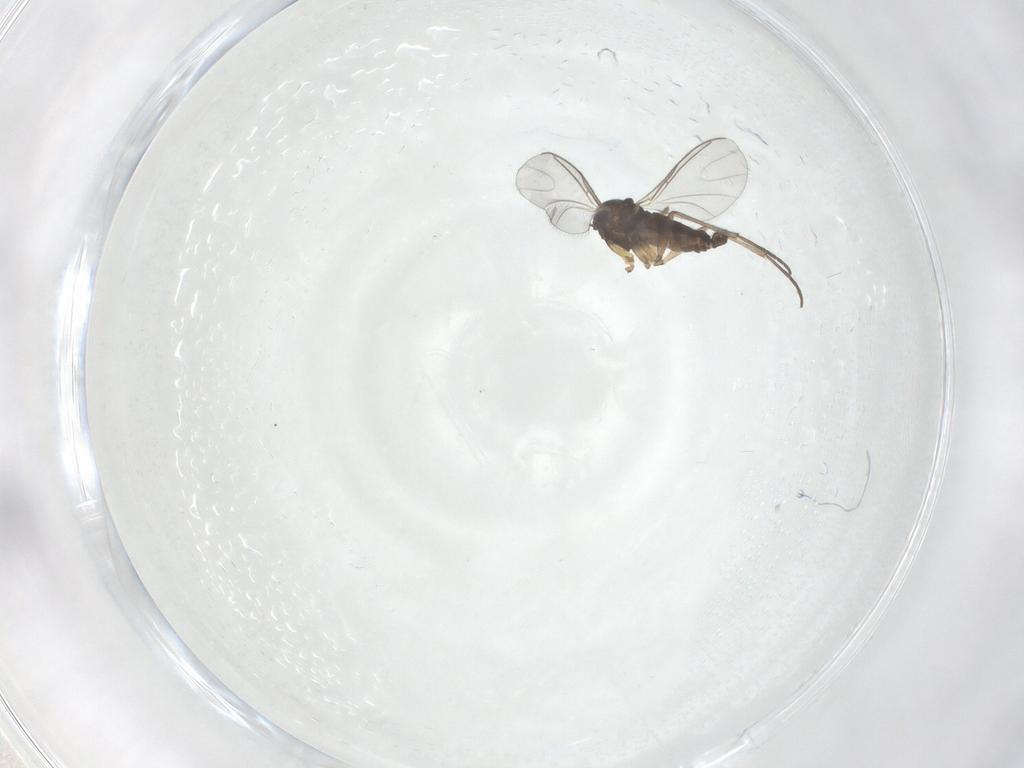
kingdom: Animalia
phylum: Arthropoda
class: Insecta
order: Diptera
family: Sciaridae
